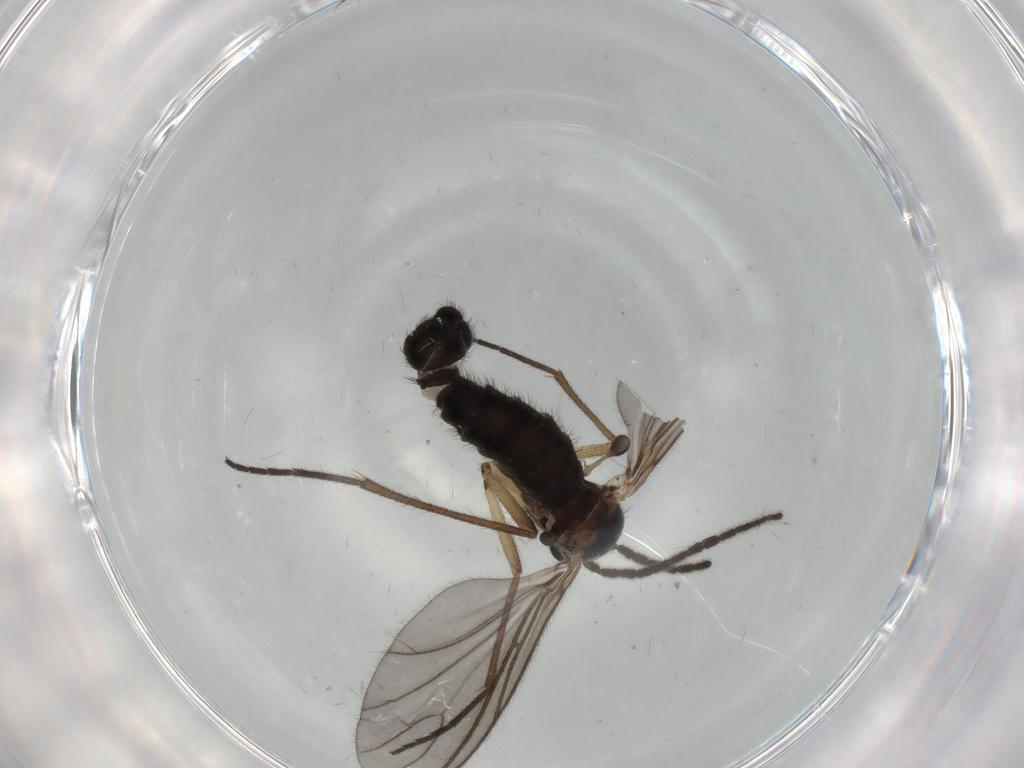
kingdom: Animalia
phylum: Arthropoda
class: Insecta
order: Diptera
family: Sciaridae
